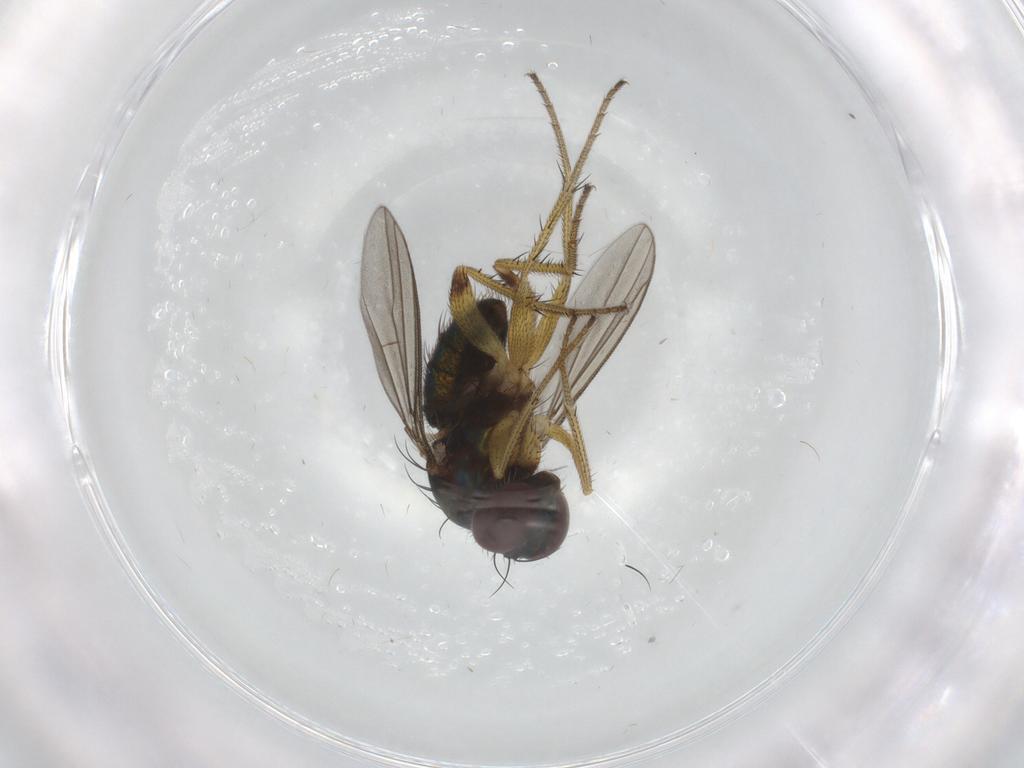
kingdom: Animalia
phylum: Arthropoda
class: Insecta
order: Diptera
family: Dolichopodidae
